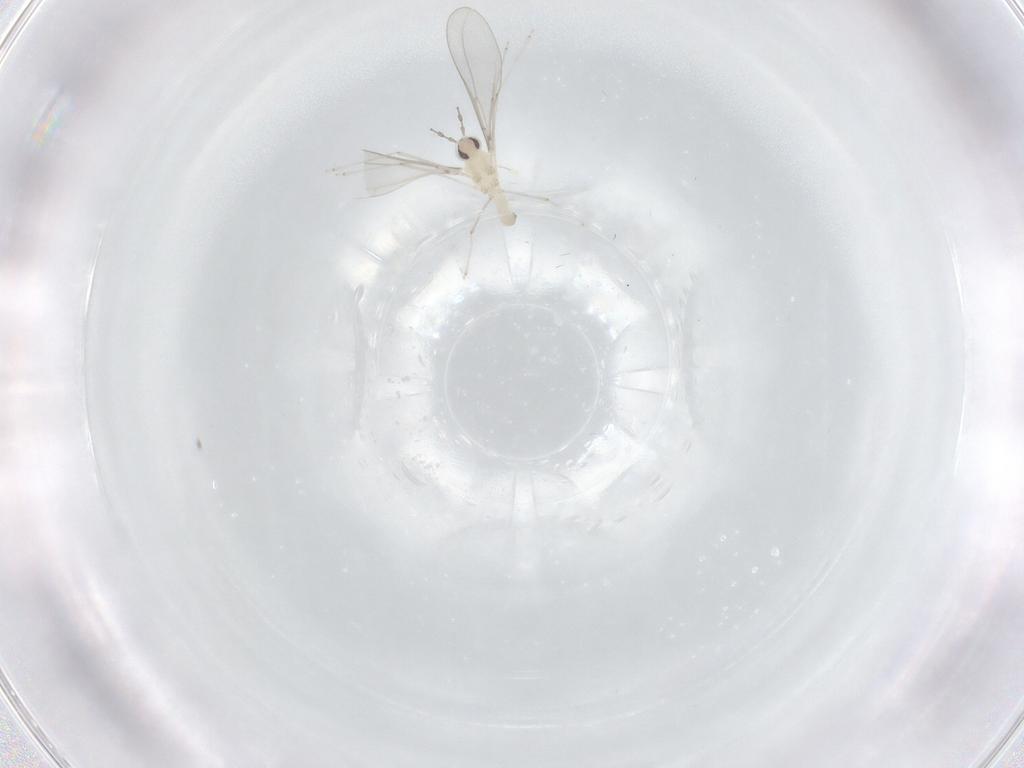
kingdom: Animalia
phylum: Arthropoda
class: Insecta
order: Diptera
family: Cecidomyiidae
